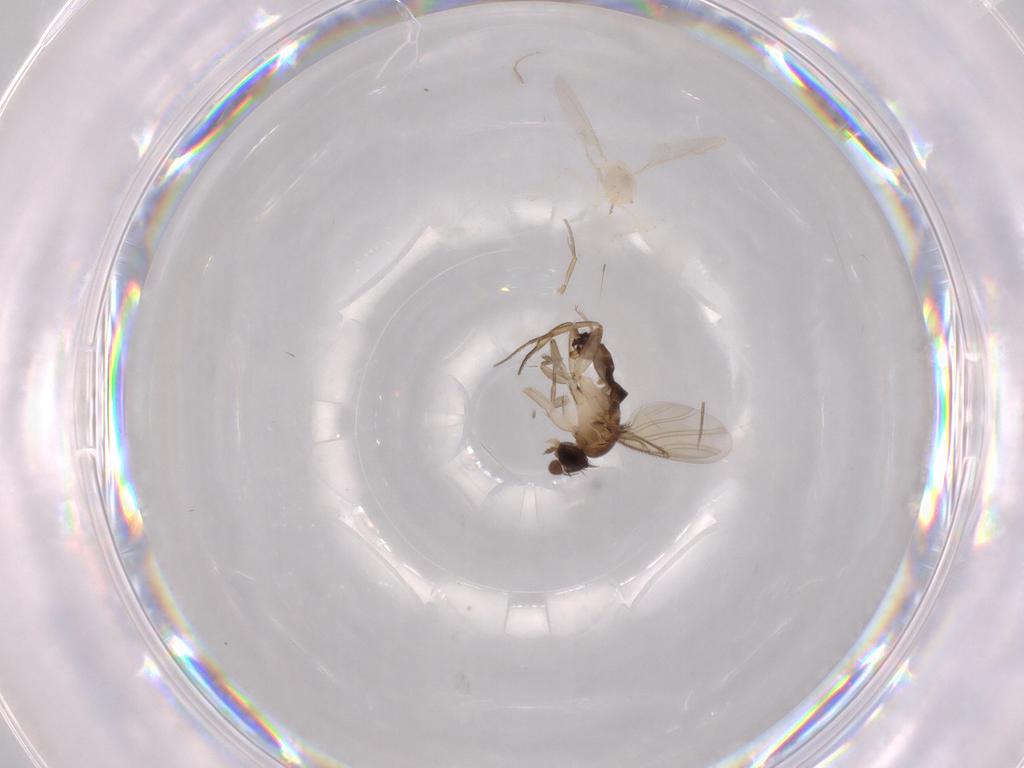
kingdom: Animalia
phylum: Arthropoda
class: Insecta
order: Diptera
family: Phoridae
